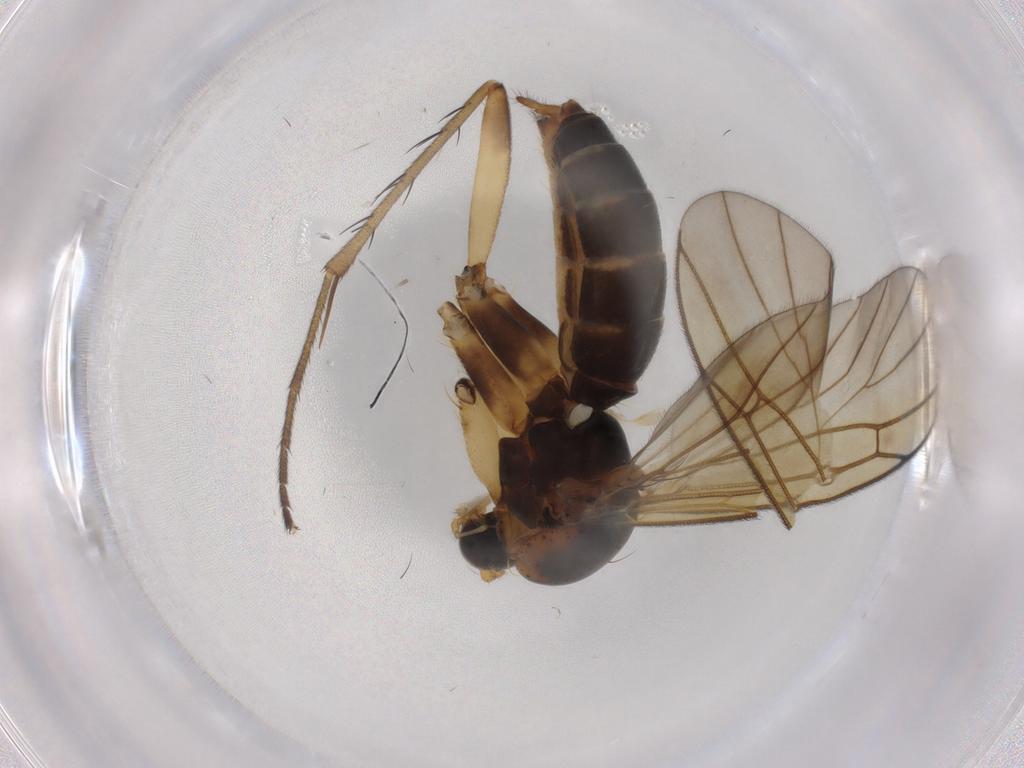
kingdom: Animalia
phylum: Arthropoda
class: Insecta
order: Diptera
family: Mycetophilidae
